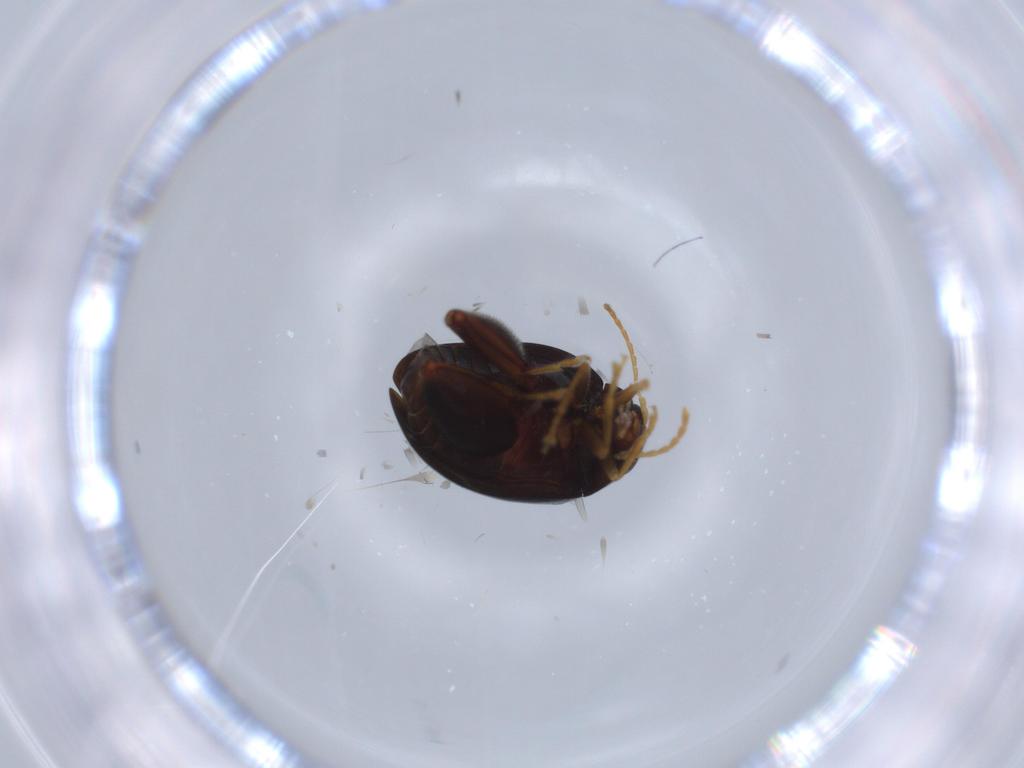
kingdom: Animalia
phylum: Arthropoda
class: Insecta
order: Coleoptera
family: Chrysomelidae
